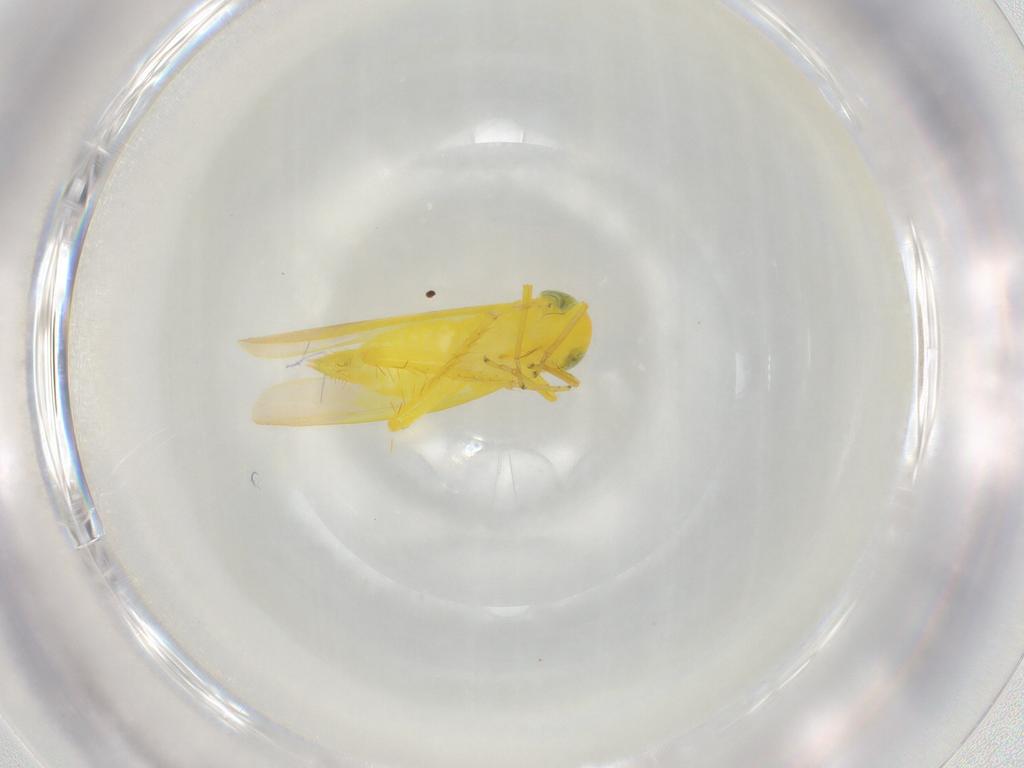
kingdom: Animalia
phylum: Arthropoda
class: Insecta
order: Hemiptera
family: Cicadellidae
